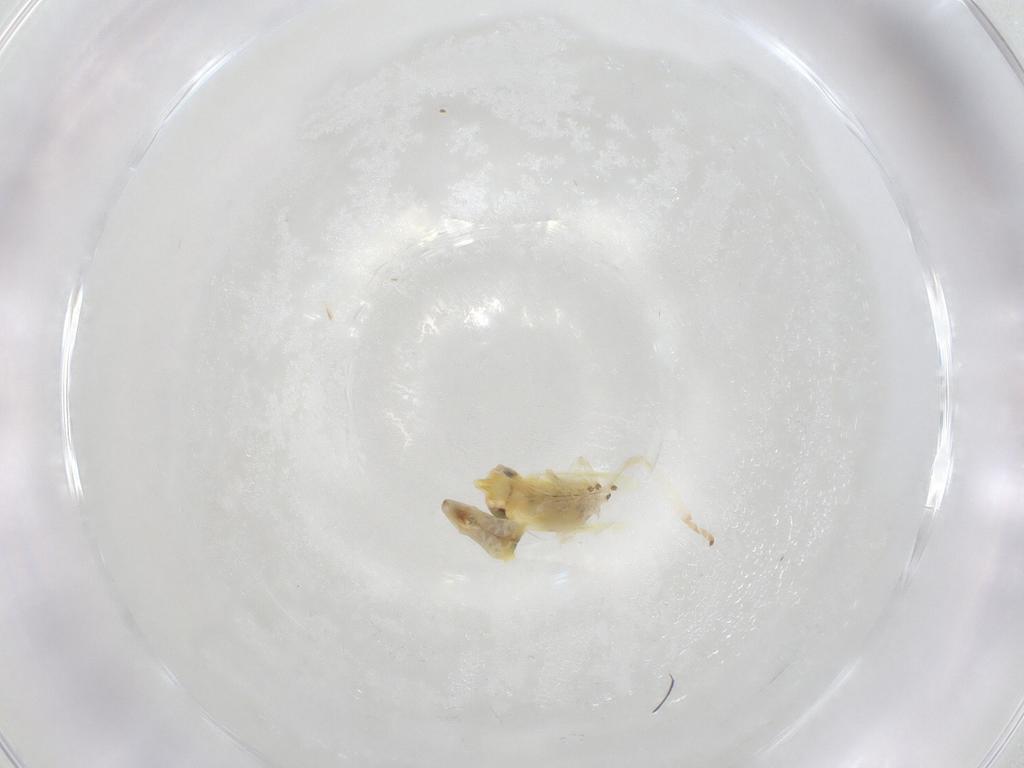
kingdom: Animalia
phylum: Arthropoda
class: Insecta
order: Hemiptera
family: Cicadellidae
